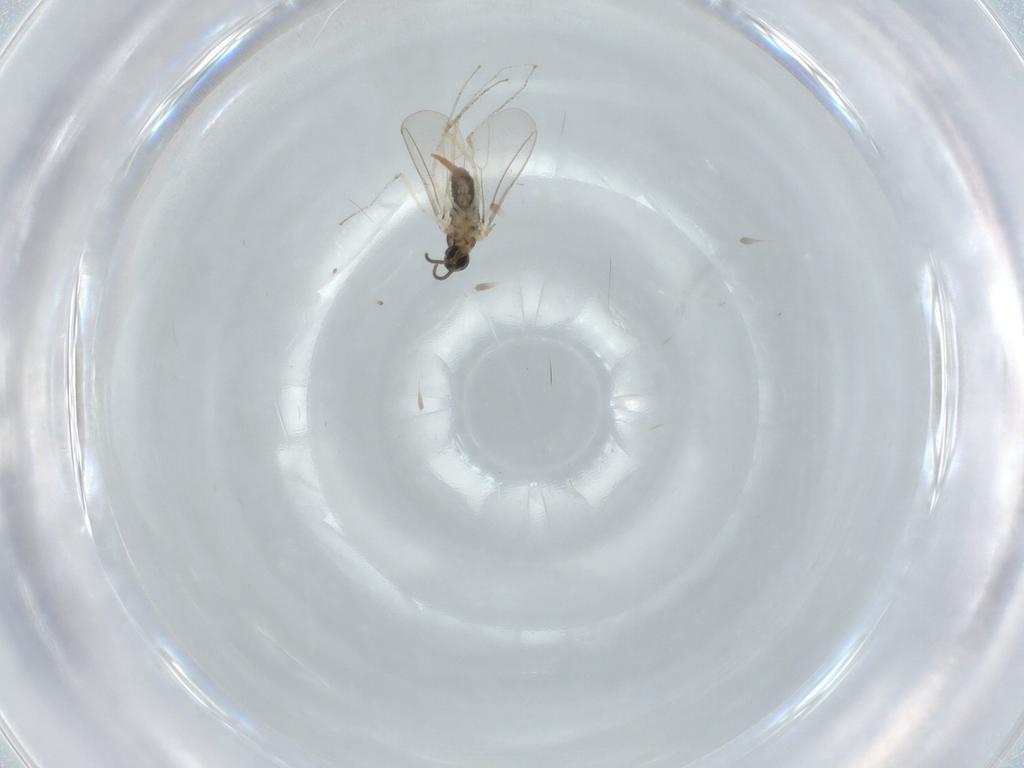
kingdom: Animalia
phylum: Arthropoda
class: Insecta
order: Diptera
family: Cecidomyiidae
